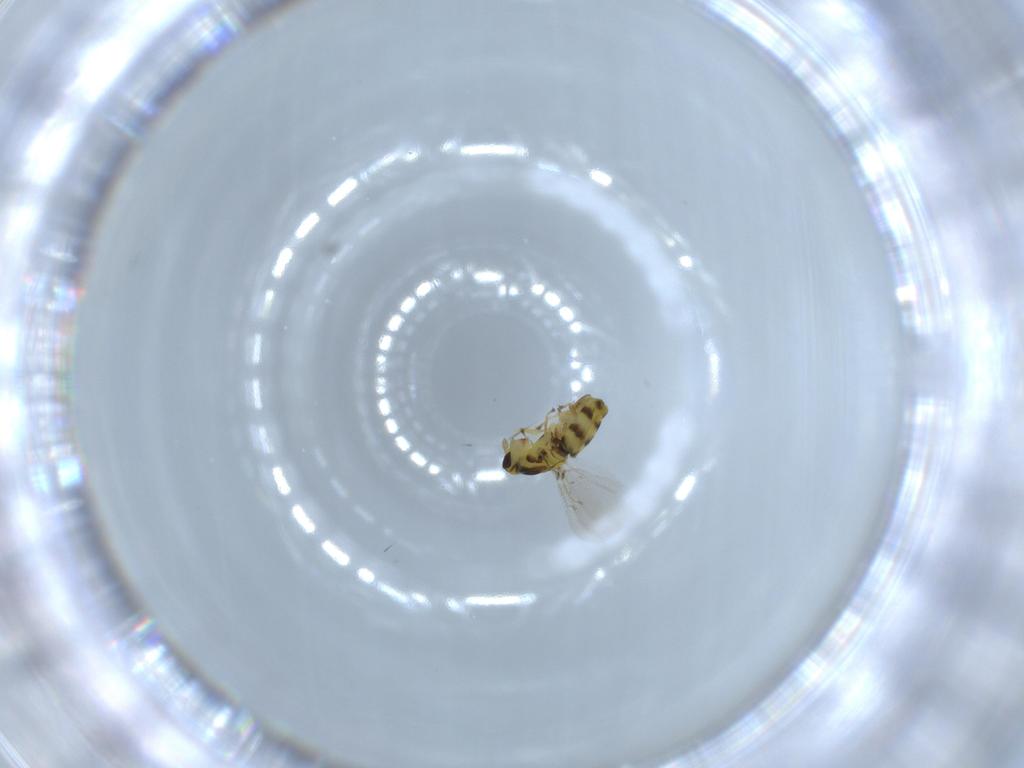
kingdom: Animalia
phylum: Arthropoda
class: Insecta
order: Hymenoptera
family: Eulophidae
